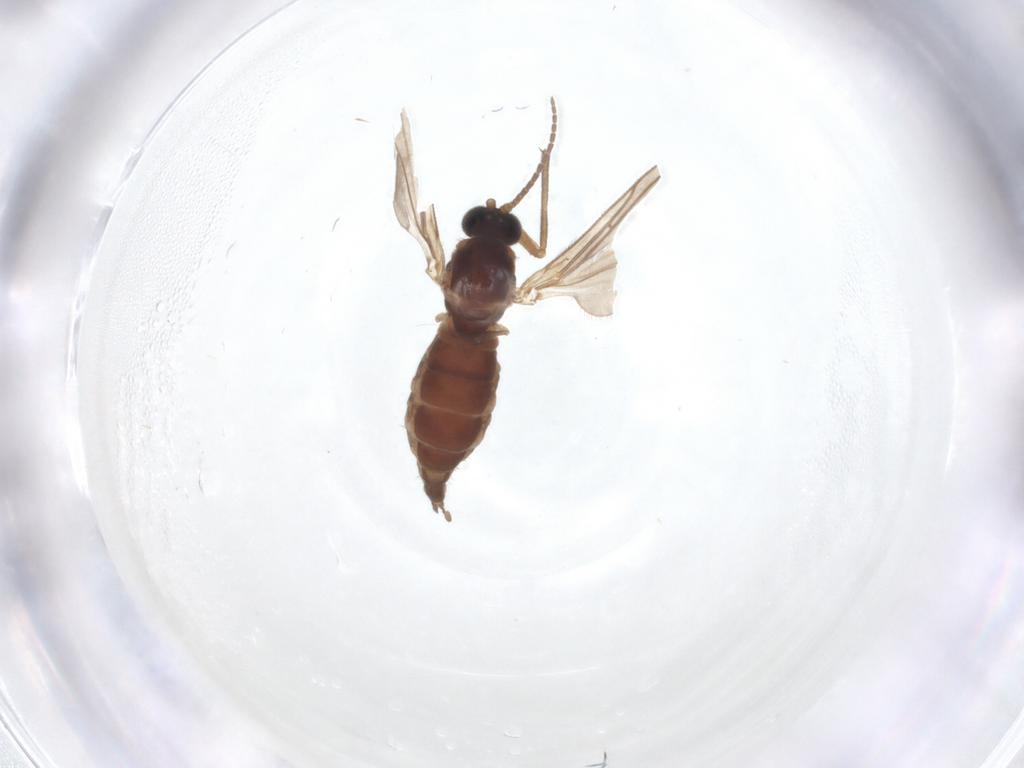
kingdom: Animalia
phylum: Arthropoda
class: Insecta
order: Diptera
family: Sciaridae
